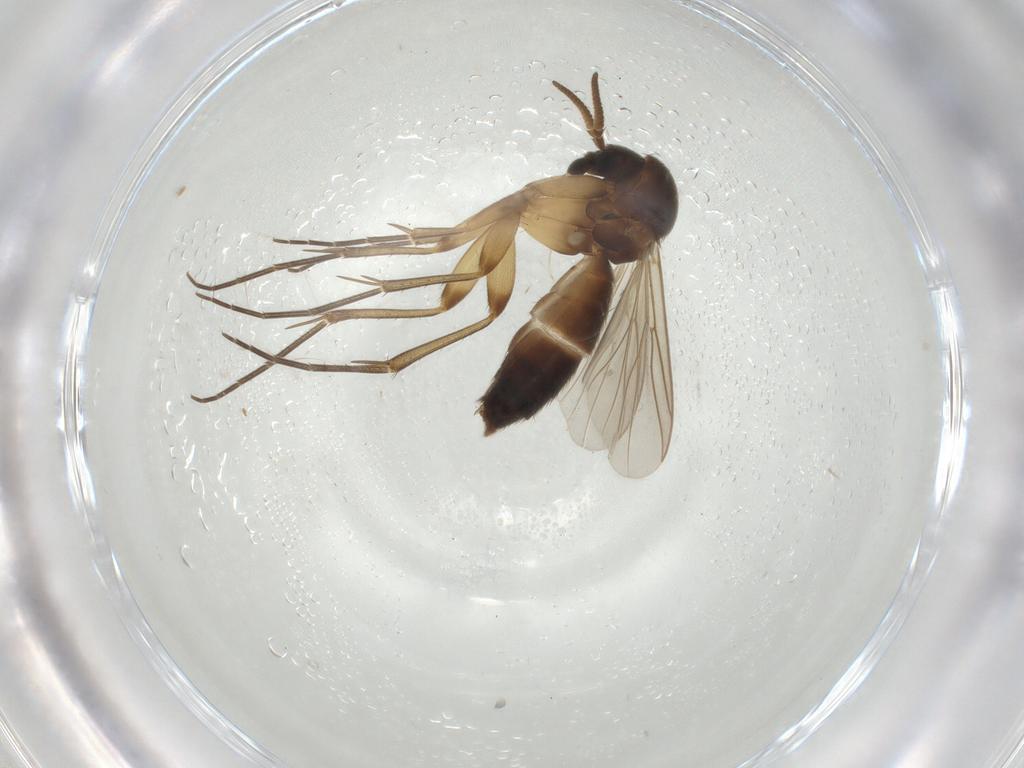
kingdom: Animalia
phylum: Arthropoda
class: Insecta
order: Diptera
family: Mycetophilidae
